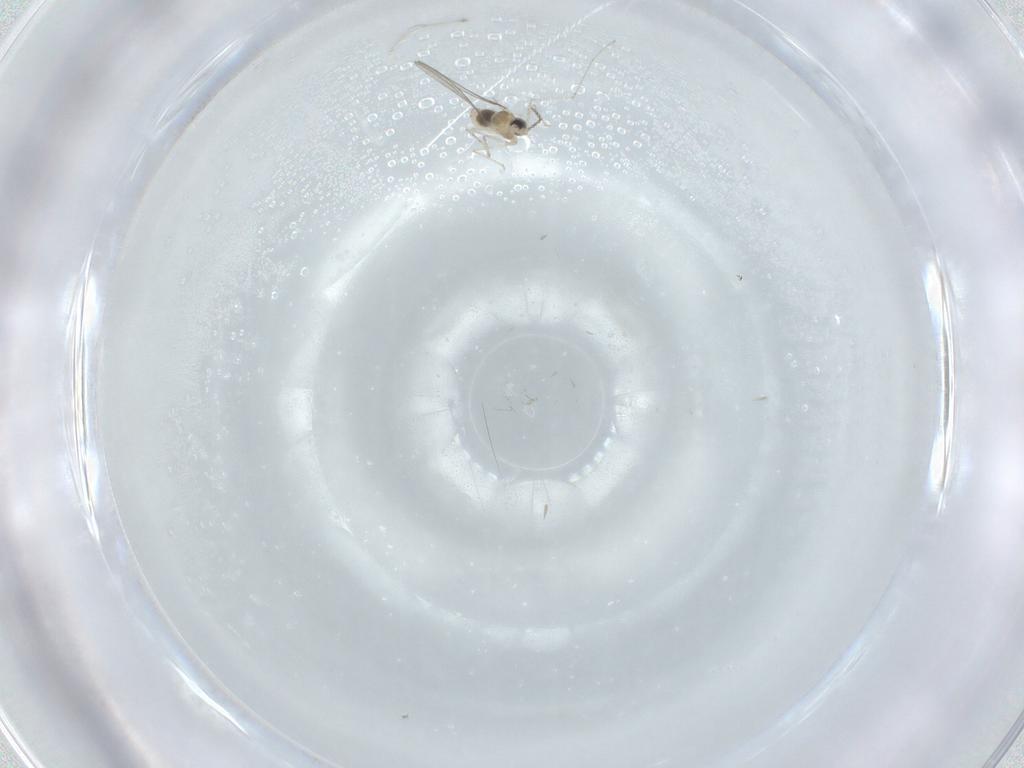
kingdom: Animalia
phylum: Arthropoda
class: Insecta
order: Diptera
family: Cecidomyiidae
